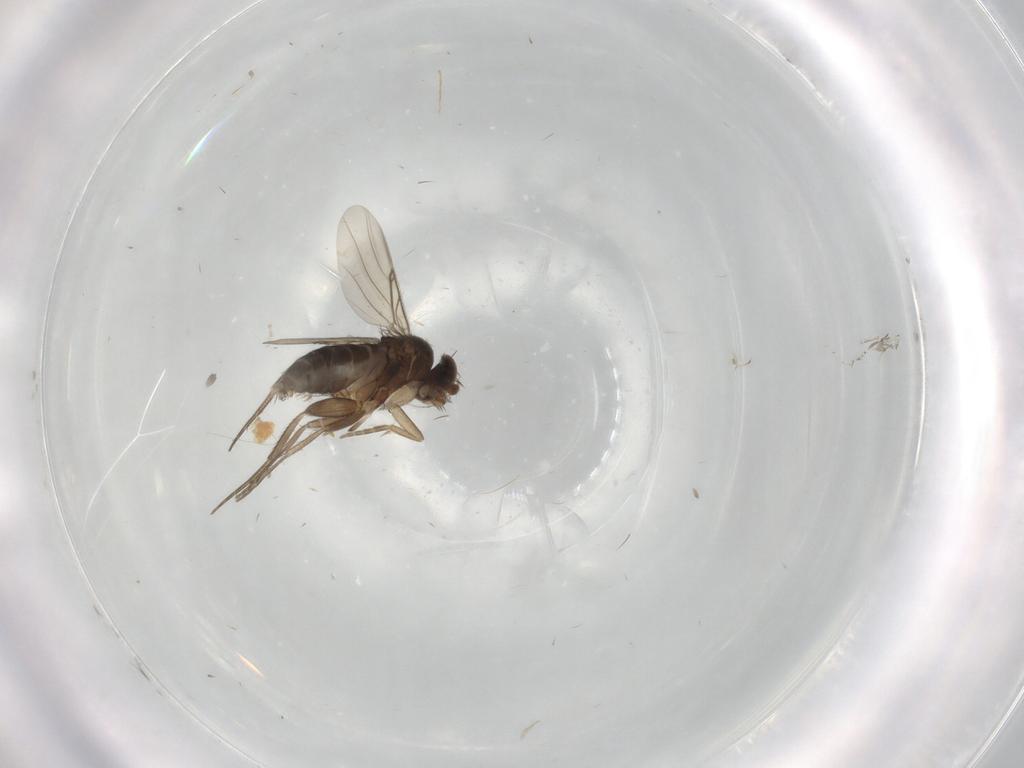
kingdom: Animalia
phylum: Arthropoda
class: Insecta
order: Diptera
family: Phoridae
